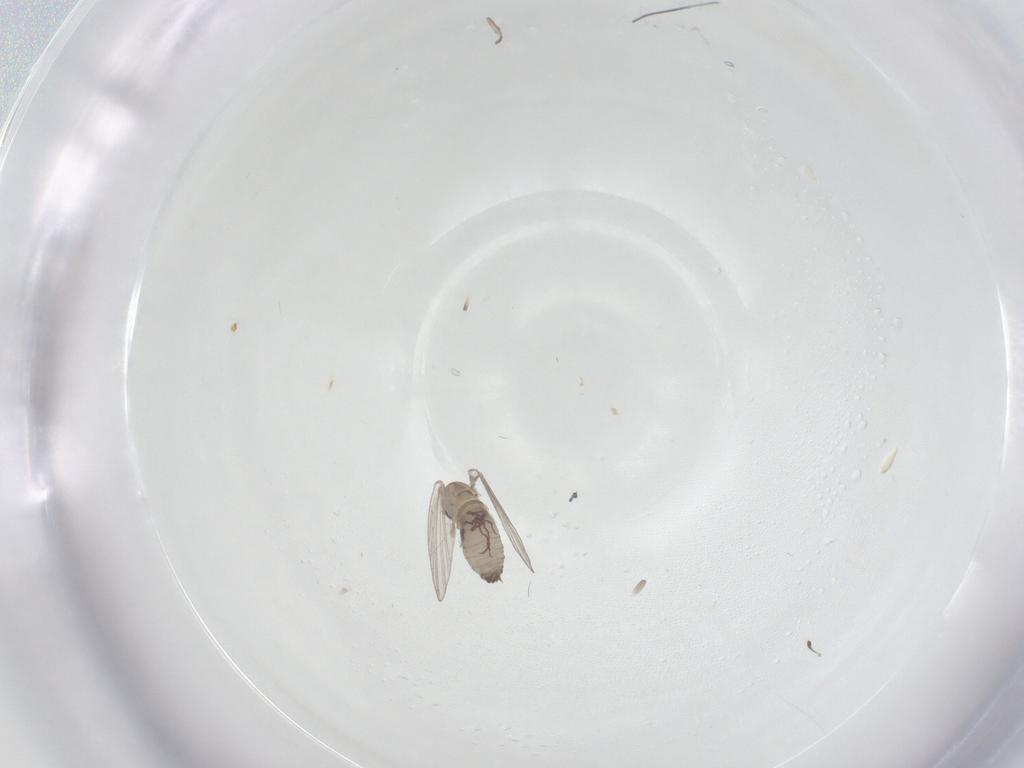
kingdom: Animalia
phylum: Arthropoda
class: Insecta
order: Diptera
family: Psychodidae
